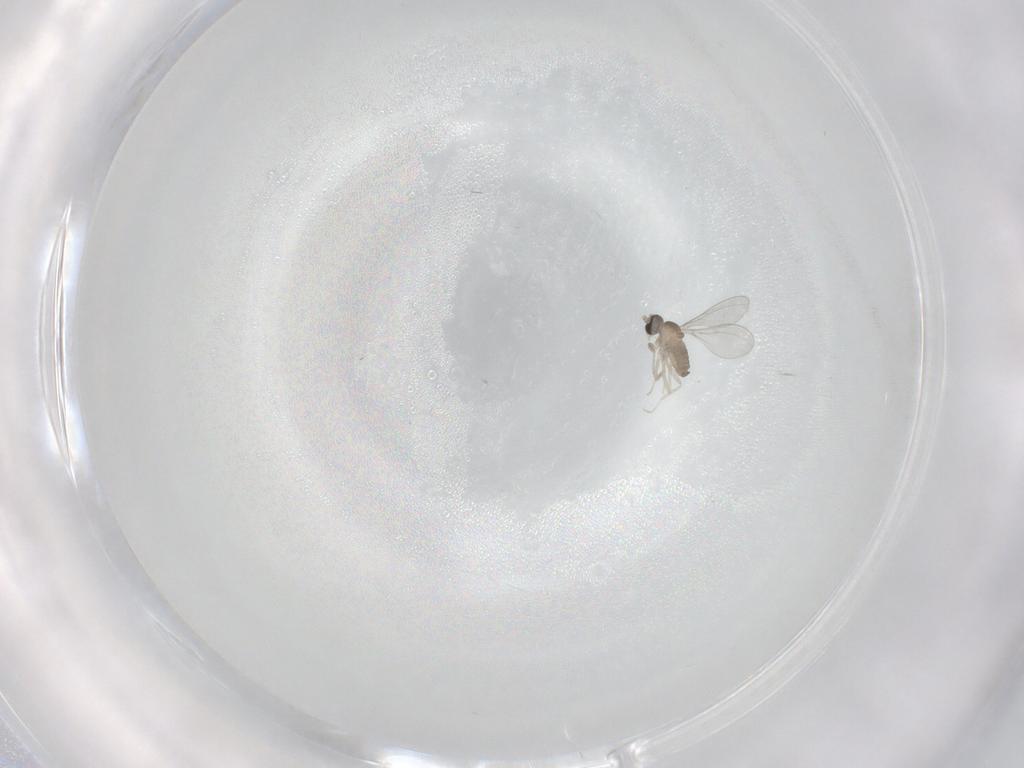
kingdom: Animalia
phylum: Arthropoda
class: Insecta
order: Diptera
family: Cecidomyiidae
